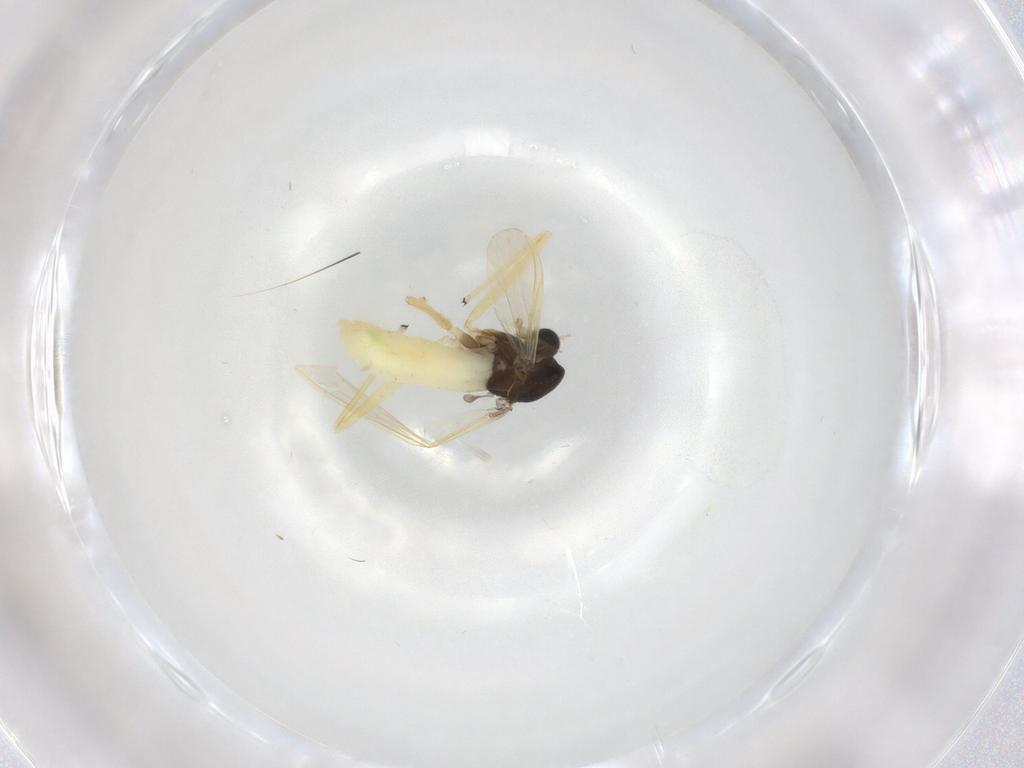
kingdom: Animalia
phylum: Arthropoda
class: Insecta
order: Diptera
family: Chironomidae
